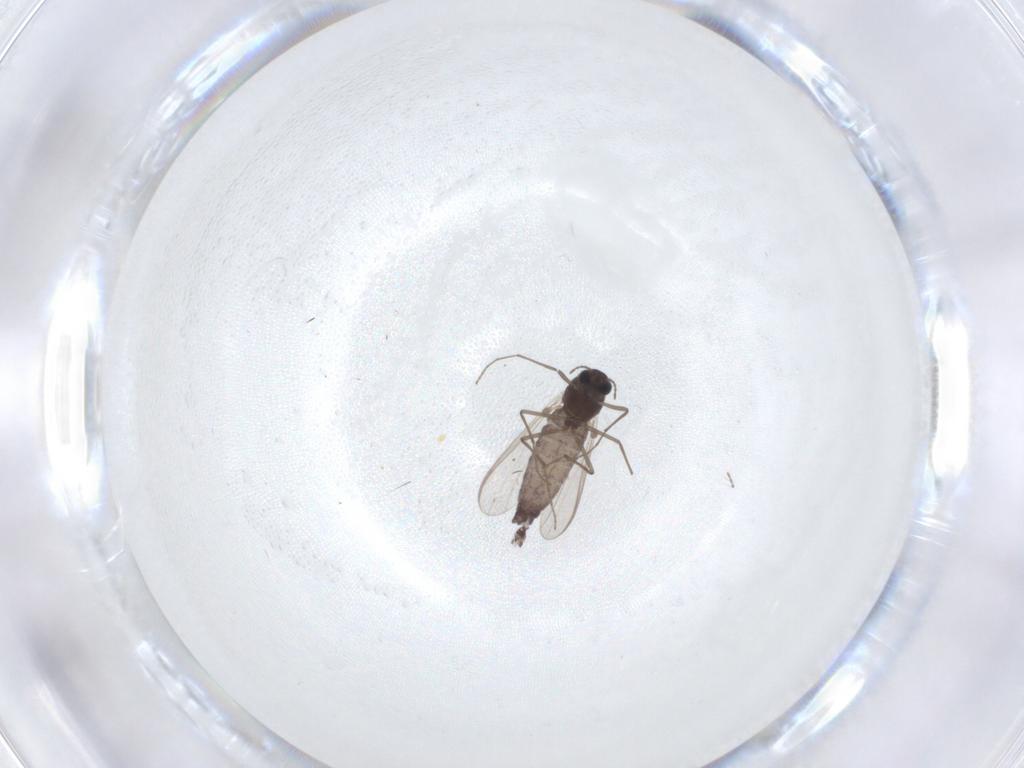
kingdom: Animalia
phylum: Arthropoda
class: Insecta
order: Diptera
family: Chironomidae
